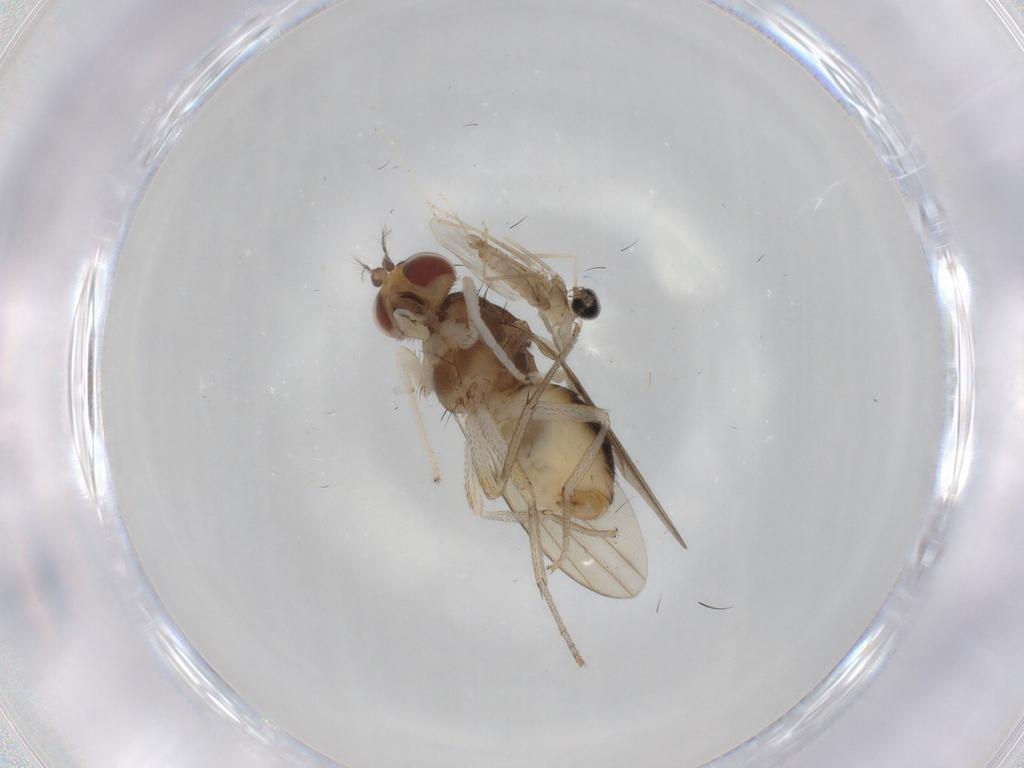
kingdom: Animalia
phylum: Arthropoda
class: Insecta
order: Diptera
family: Sciaridae
